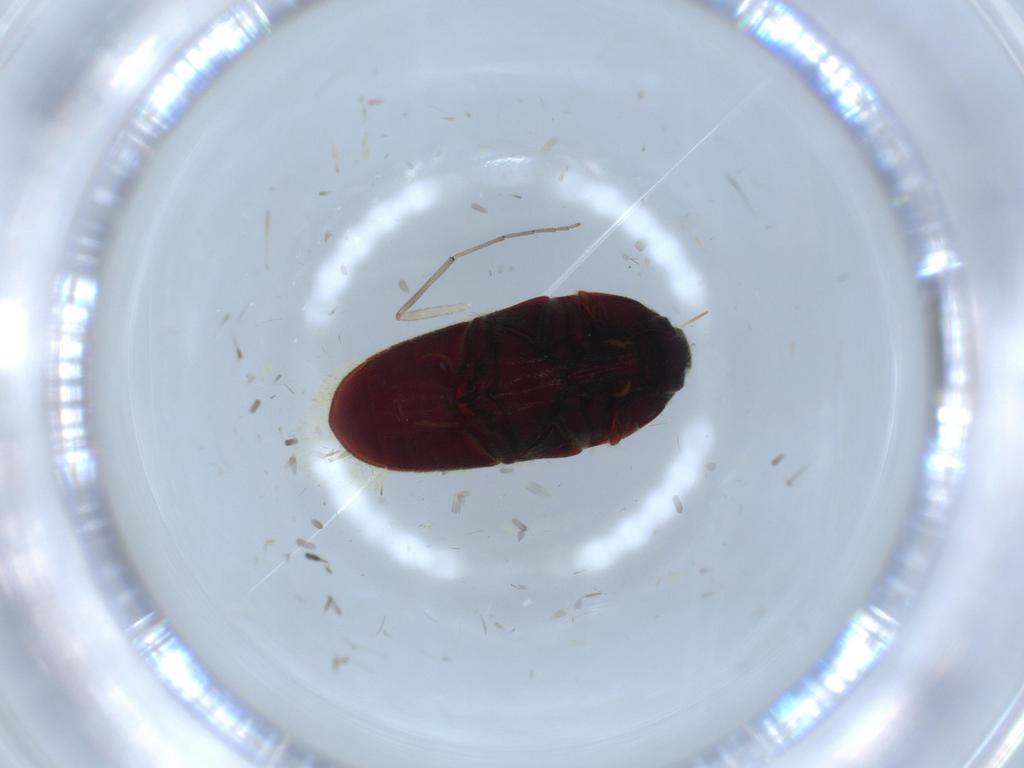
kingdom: Animalia
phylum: Arthropoda
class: Insecta
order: Coleoptera
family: Throscidae
